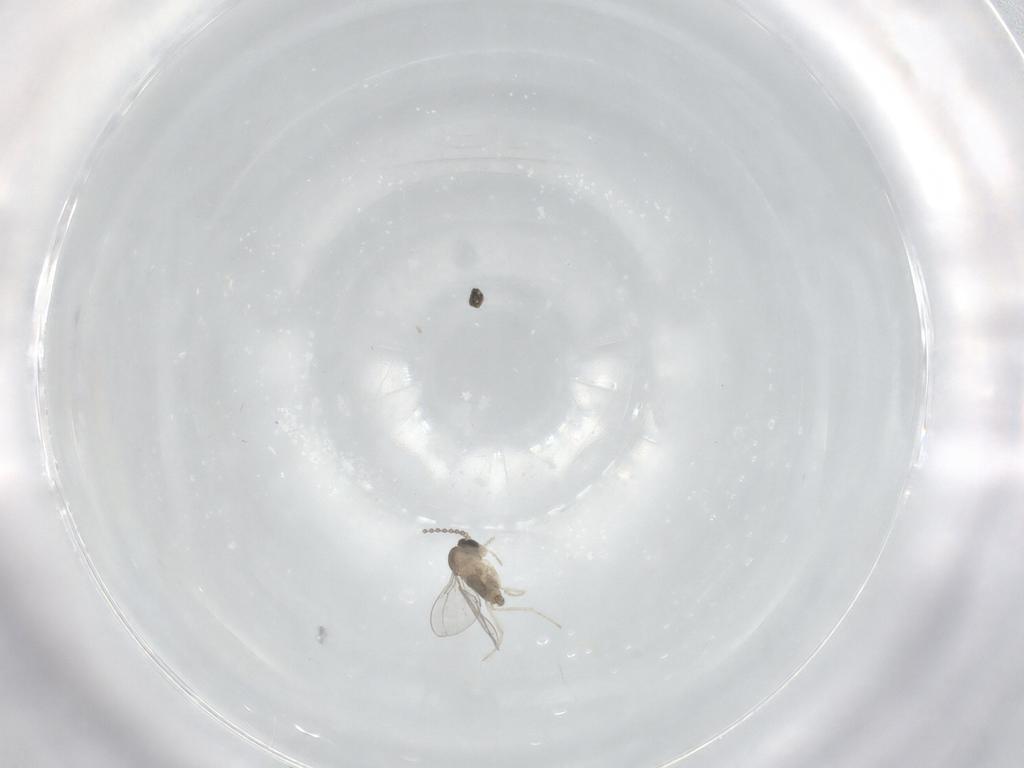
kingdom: Animalia
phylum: Arthropoda
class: Insecta
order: Diptera
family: Cecidomyiidae
